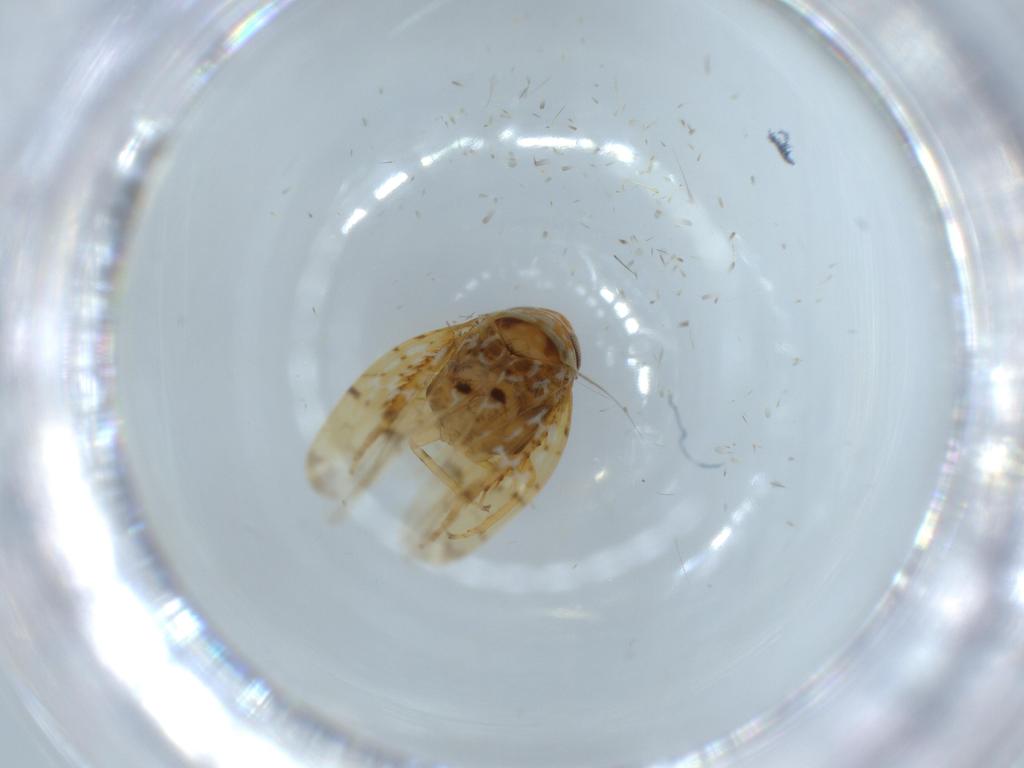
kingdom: Animalia
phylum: Arthropoda
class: Insecta
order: Hemiptera
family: Cicadellidae
